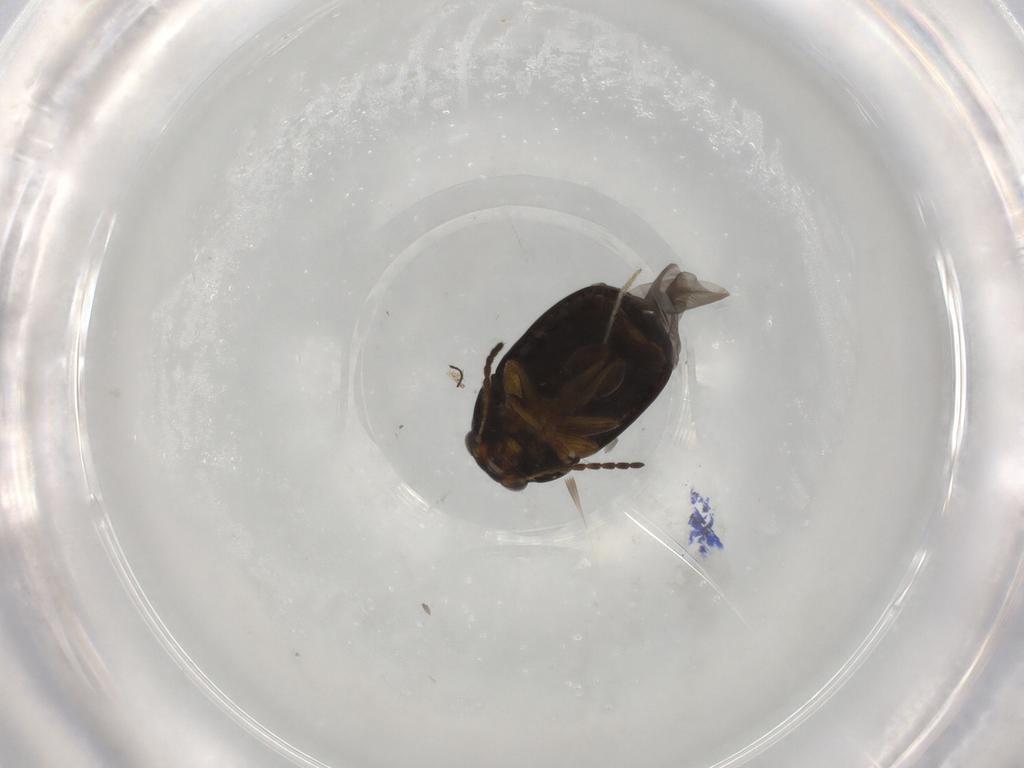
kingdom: Animalia
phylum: Arthropoda
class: Insecta
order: Coleoptera
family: Chrysomelidae
